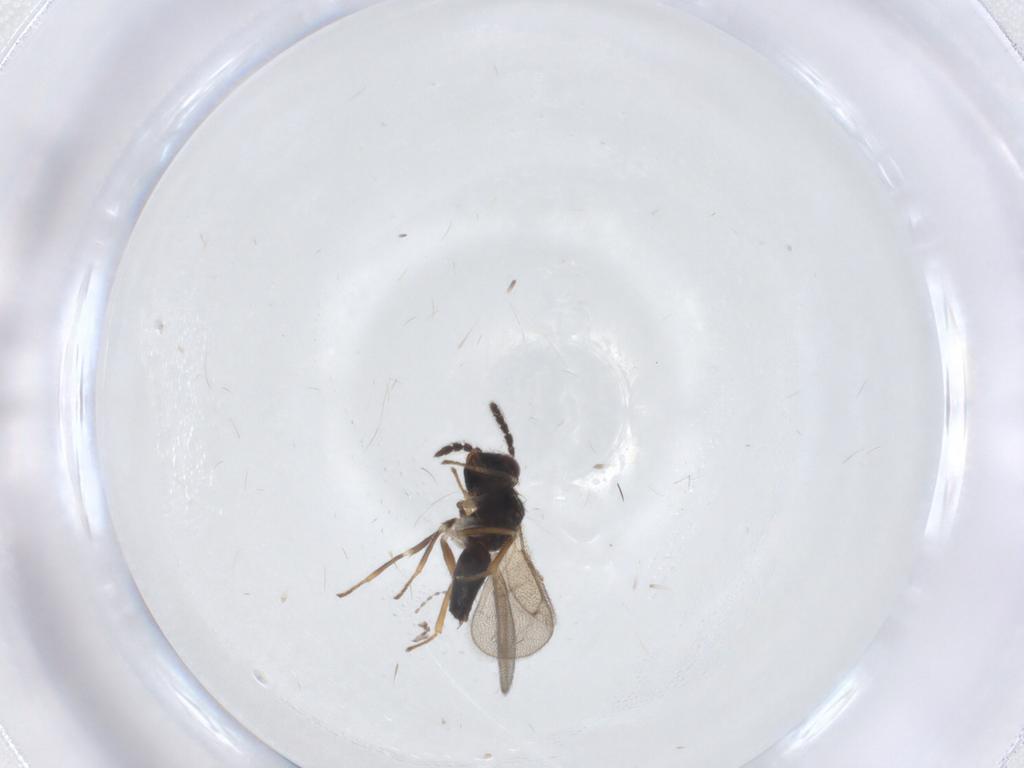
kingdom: Animalia
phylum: Arthropoda
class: Insecta
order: Hymenoptera
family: Eulophidae
